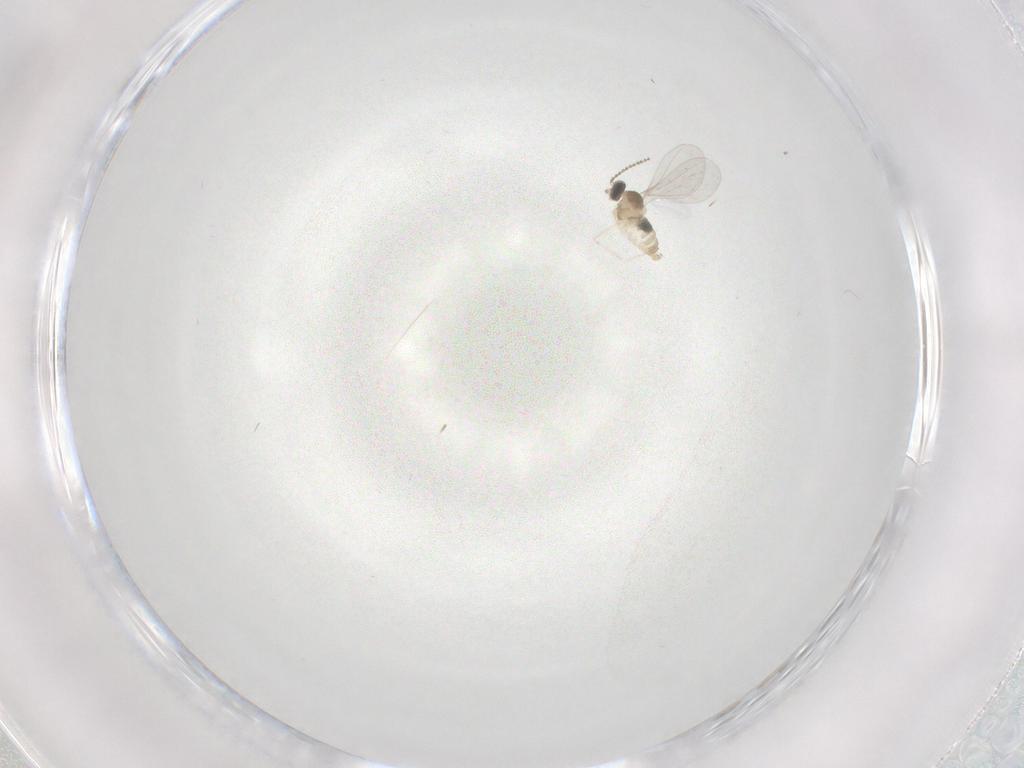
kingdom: Animalia
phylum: Arthropoda
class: Insecta
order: Diptera
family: Cecidomyiidae
